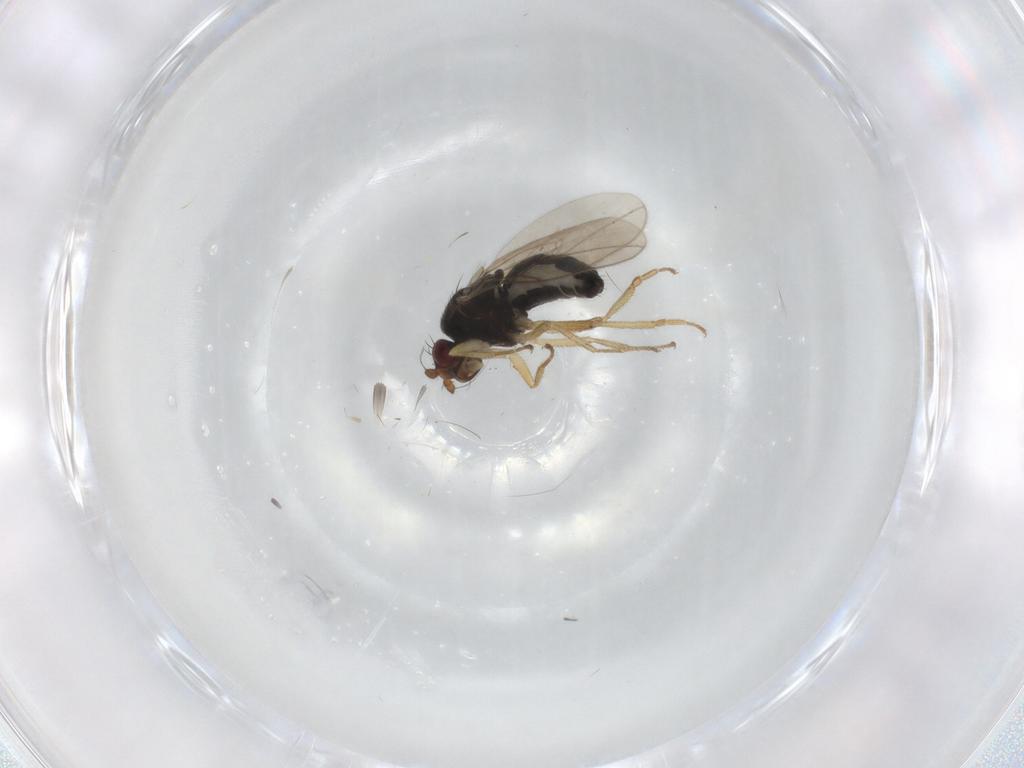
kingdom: Animalia
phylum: Arthropoda
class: Insecta
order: Diptera
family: Sphaeroceridae
